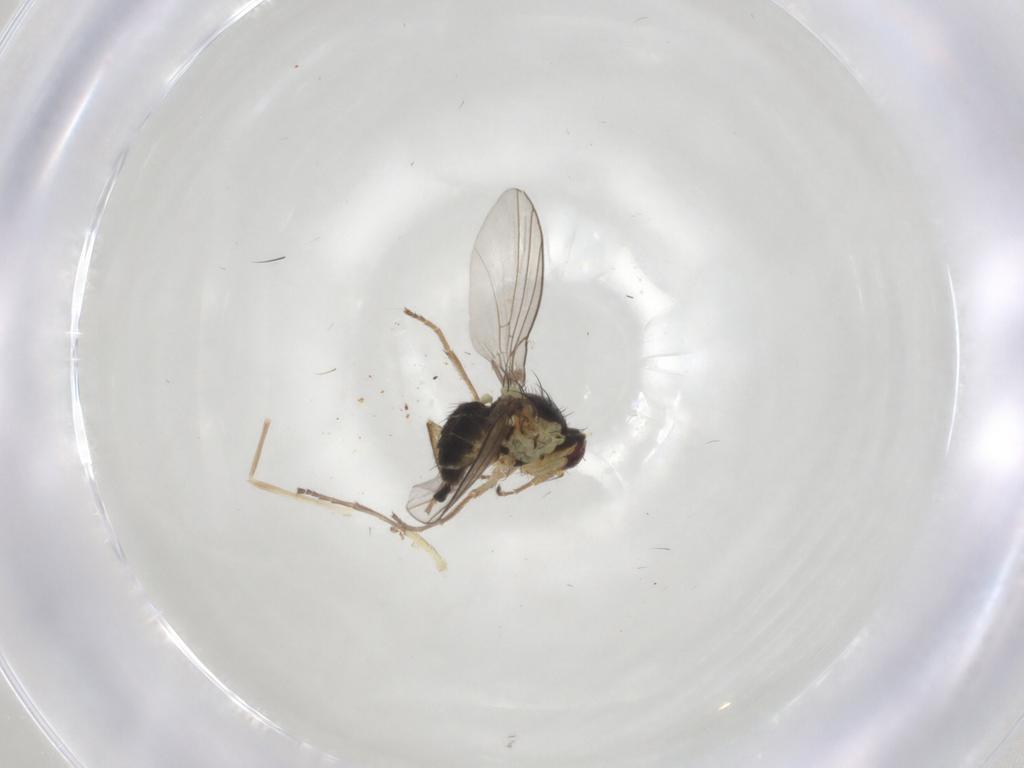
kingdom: Animalia
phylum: Arthropoda
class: Insecta
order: Diptera
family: Agromyzidae
